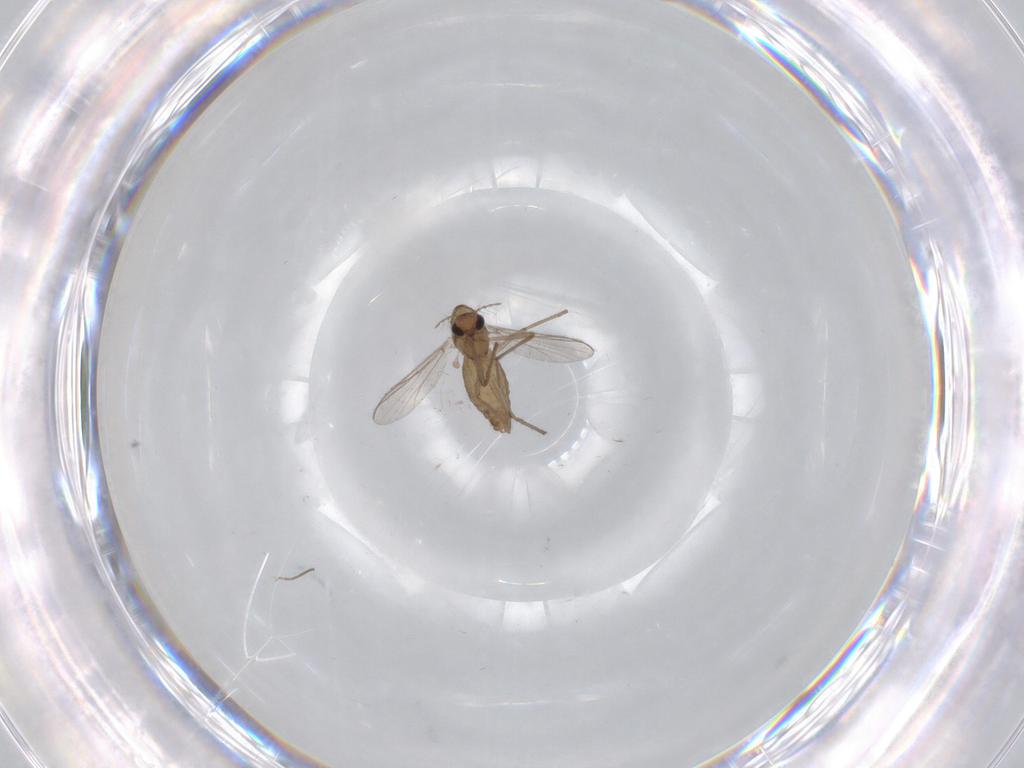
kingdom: Animalia
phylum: Arthropoda
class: Insecta
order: Diptera
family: Chironomidae
